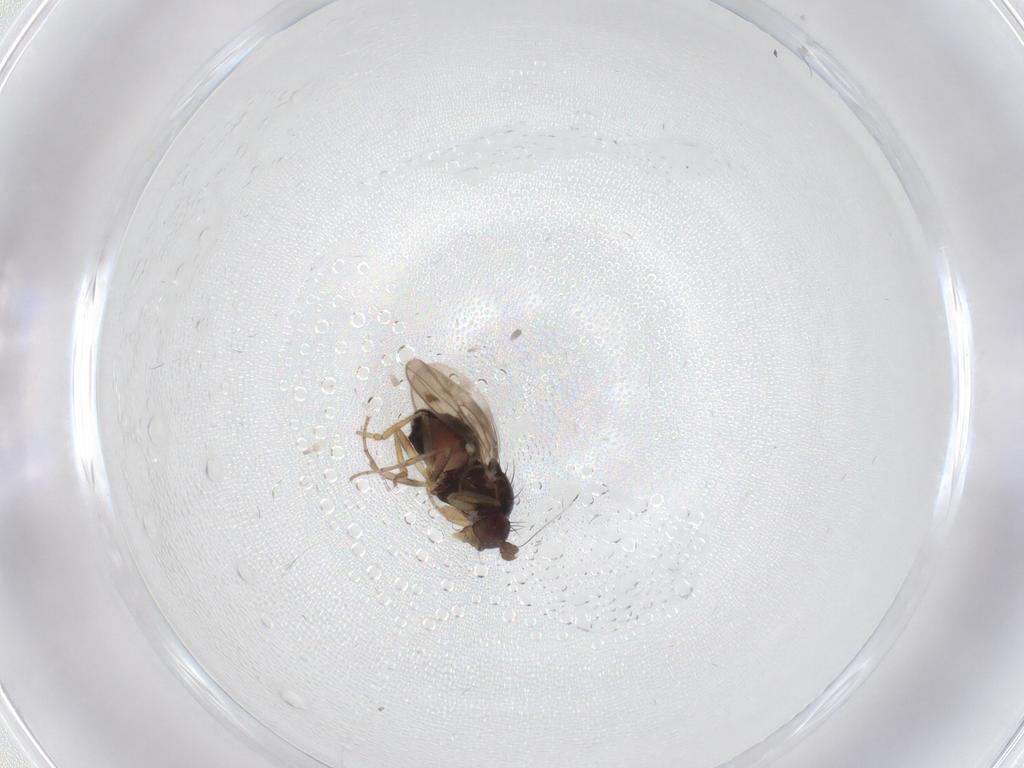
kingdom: Animalia
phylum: Arthropoda
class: Insecta
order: Diptera
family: Sphaeroceridae
